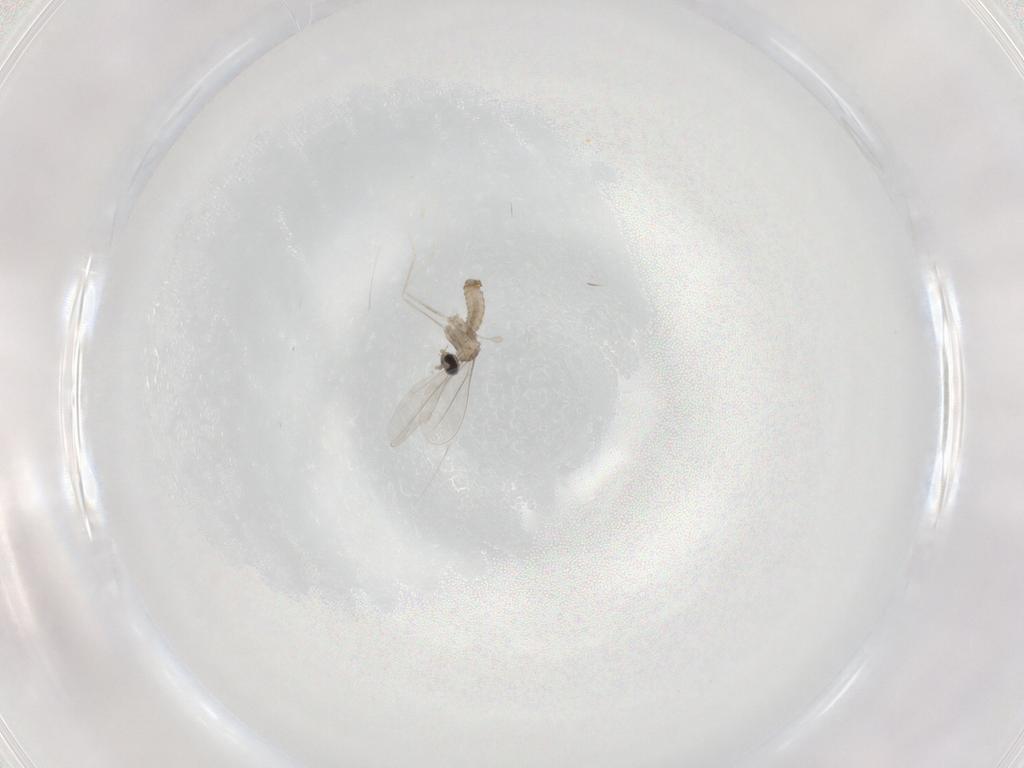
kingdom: Animalia
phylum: Arthropoda
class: Insecta
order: Diptera
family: Cecidomyiidae
